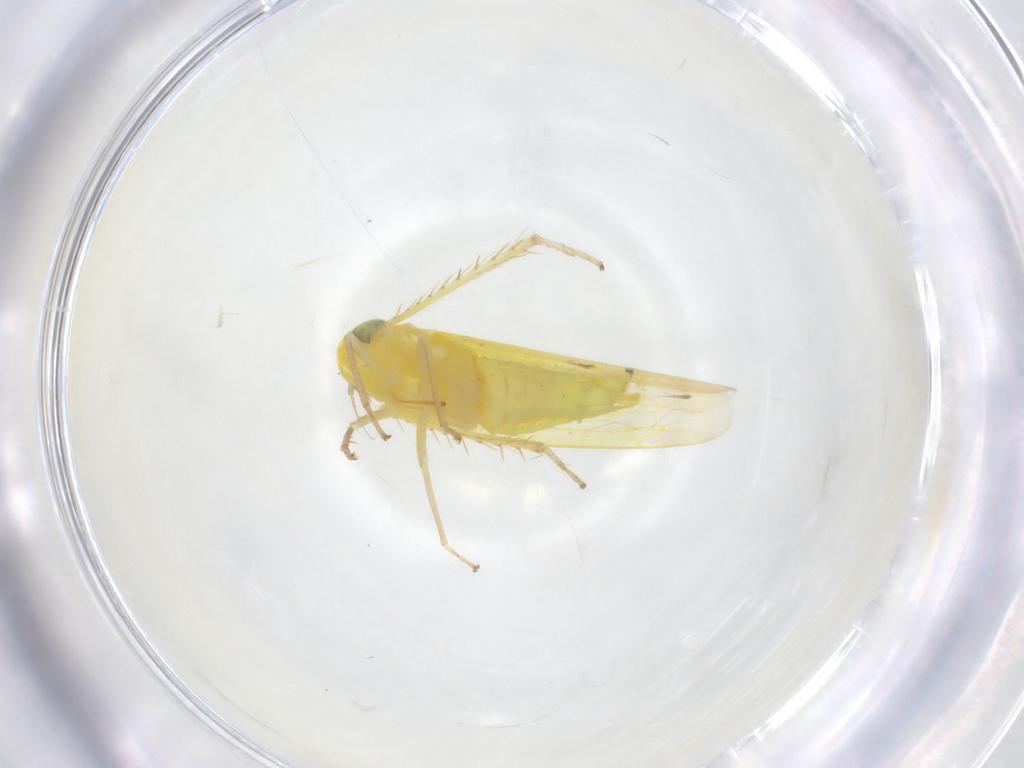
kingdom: Animalia
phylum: Arthropoda
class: Insecta
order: Hemiptera
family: Cicadellidae
